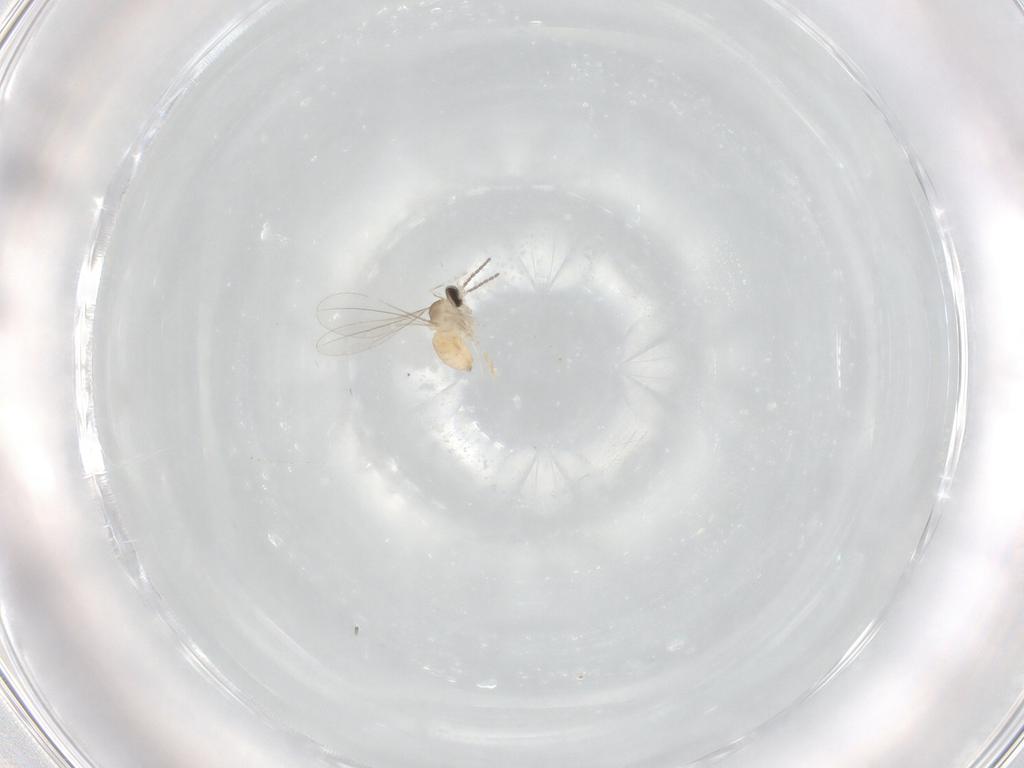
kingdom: Animalia
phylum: Arthropoda
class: Insecta
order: Diptera
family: Cecidomyiidae
